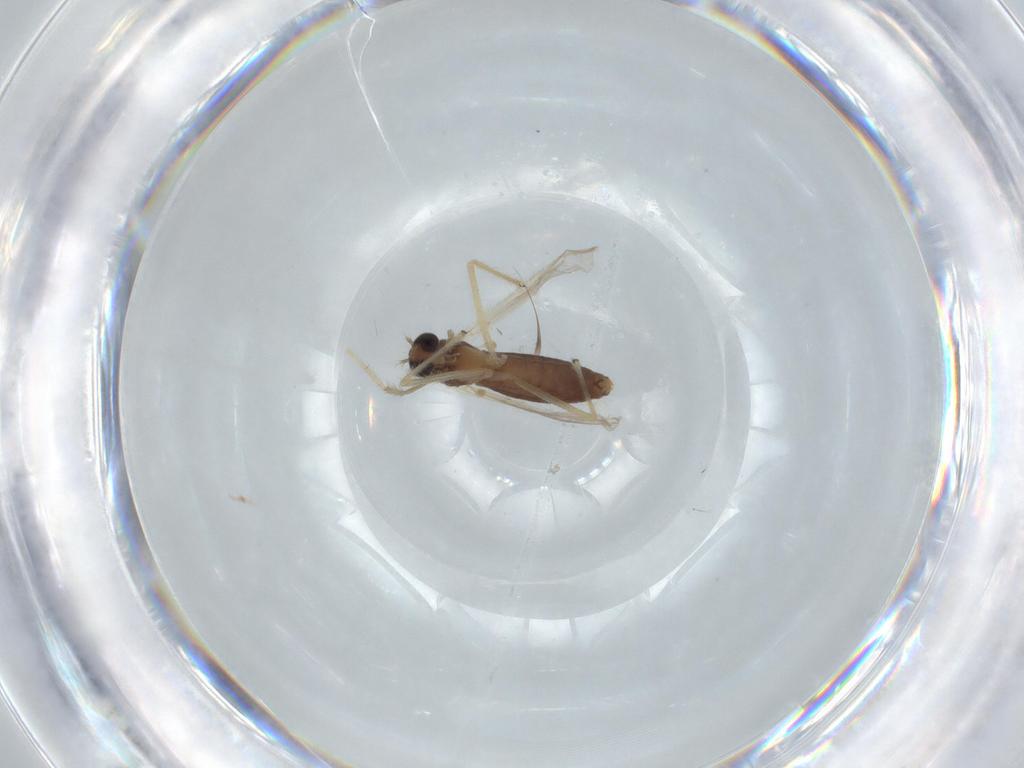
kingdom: Animalia
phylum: Arthropoda
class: Insecta
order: Diptera
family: Chironomidae
